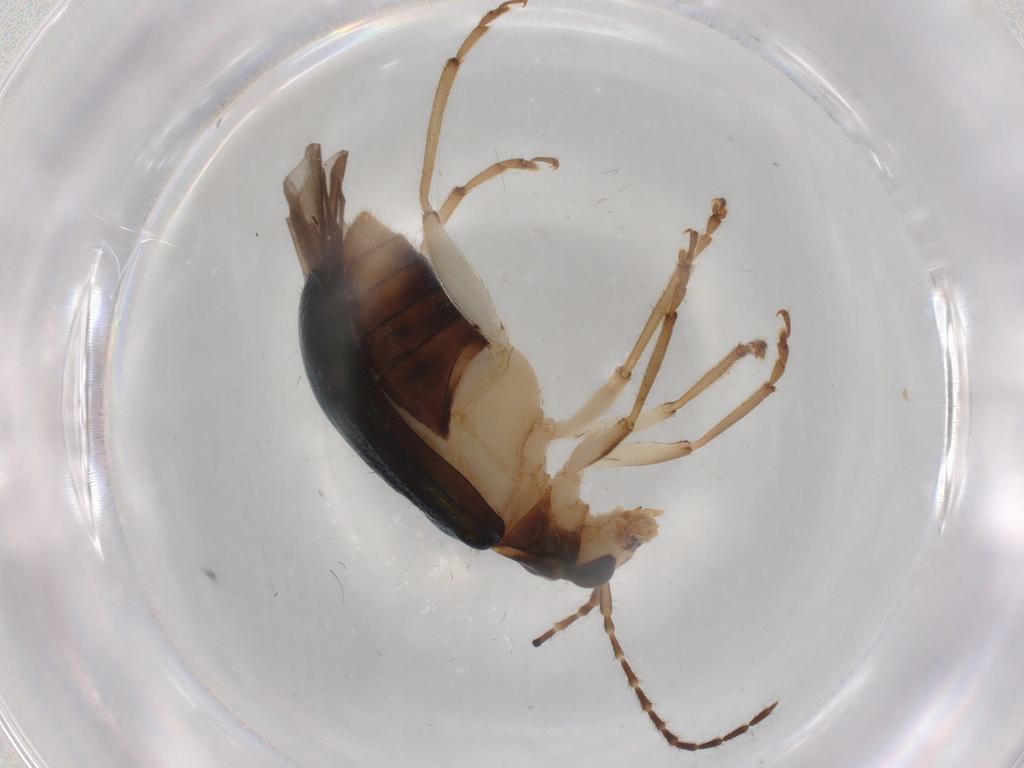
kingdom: Animalia
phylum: Arthropoda
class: Insecta
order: Coleoptera
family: Chrysomelidae
